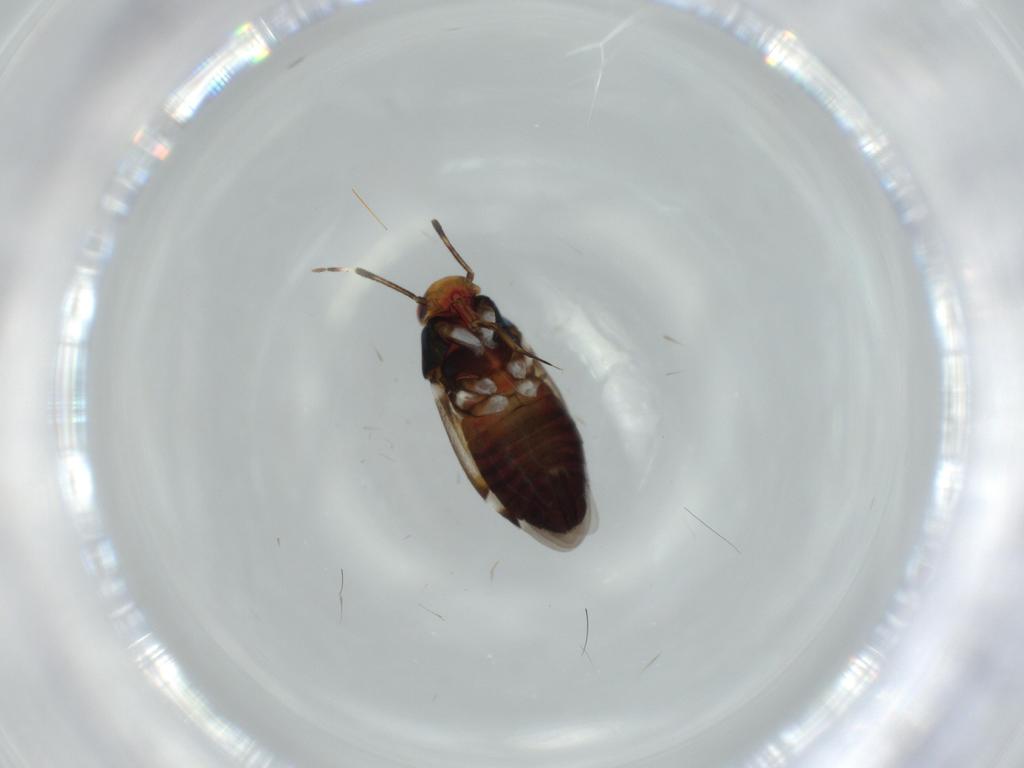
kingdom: Animalia
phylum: Arthropoda
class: Insecta
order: Hemiptera
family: Miridae
